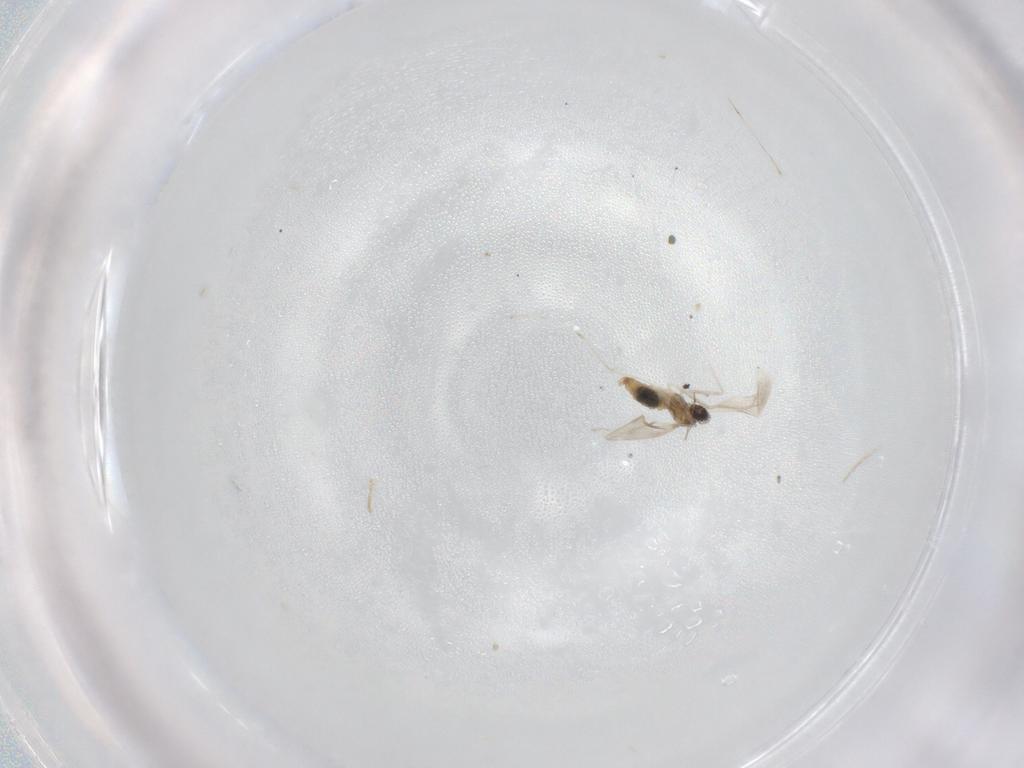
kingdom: Animalia
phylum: Arthropoda
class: Insecta
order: Diptera
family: Cecidomyiidae
